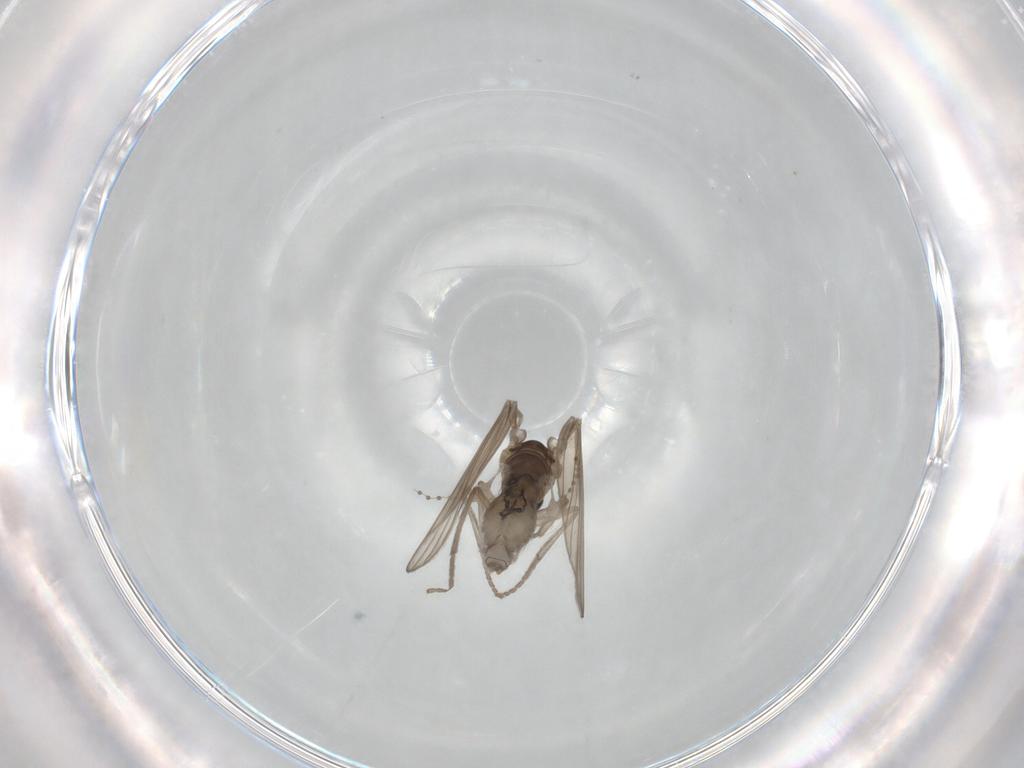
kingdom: Animalia
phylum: Arthropoda
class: Insecta
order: Diptera
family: Psychodidae
